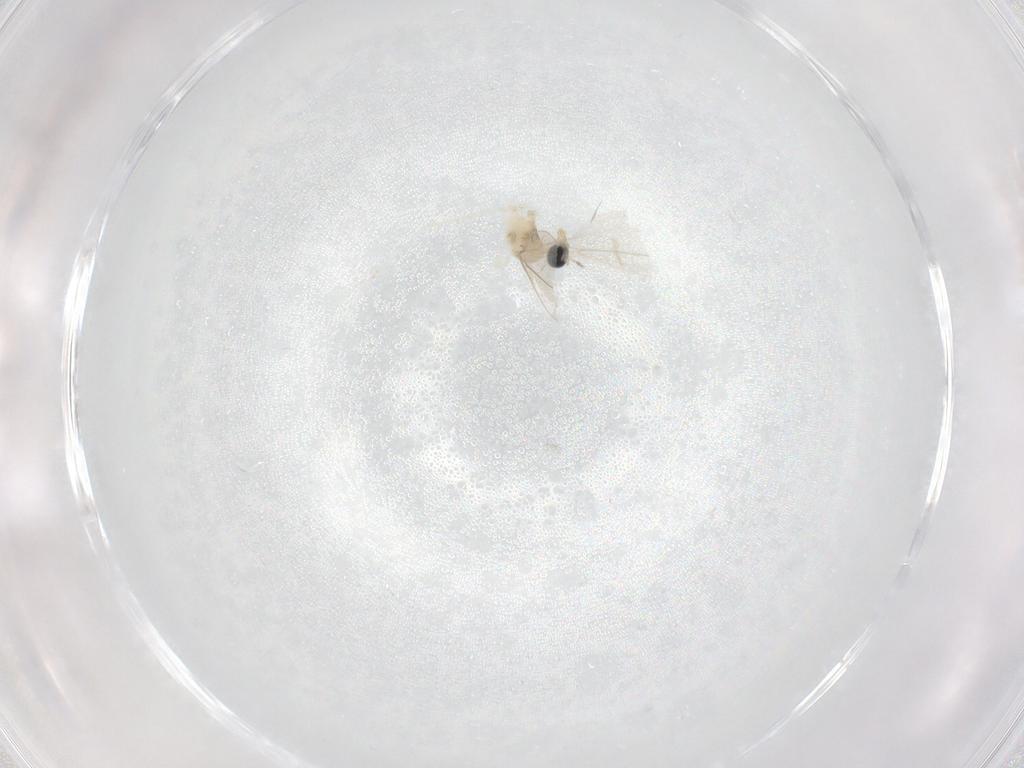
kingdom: Animalia
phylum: Arthropoda
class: Insecta
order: Diptera
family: Cecidomyiidae
